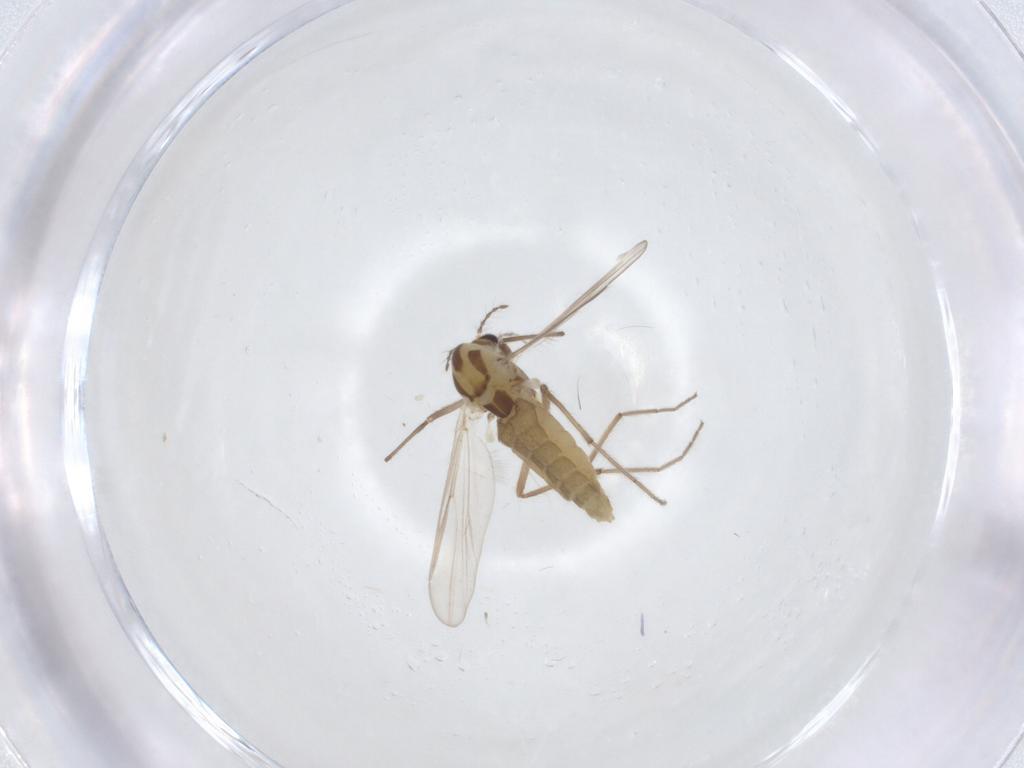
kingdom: Animalia
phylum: Arthropoda
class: Insecta
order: Diptera
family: Chironomidae
